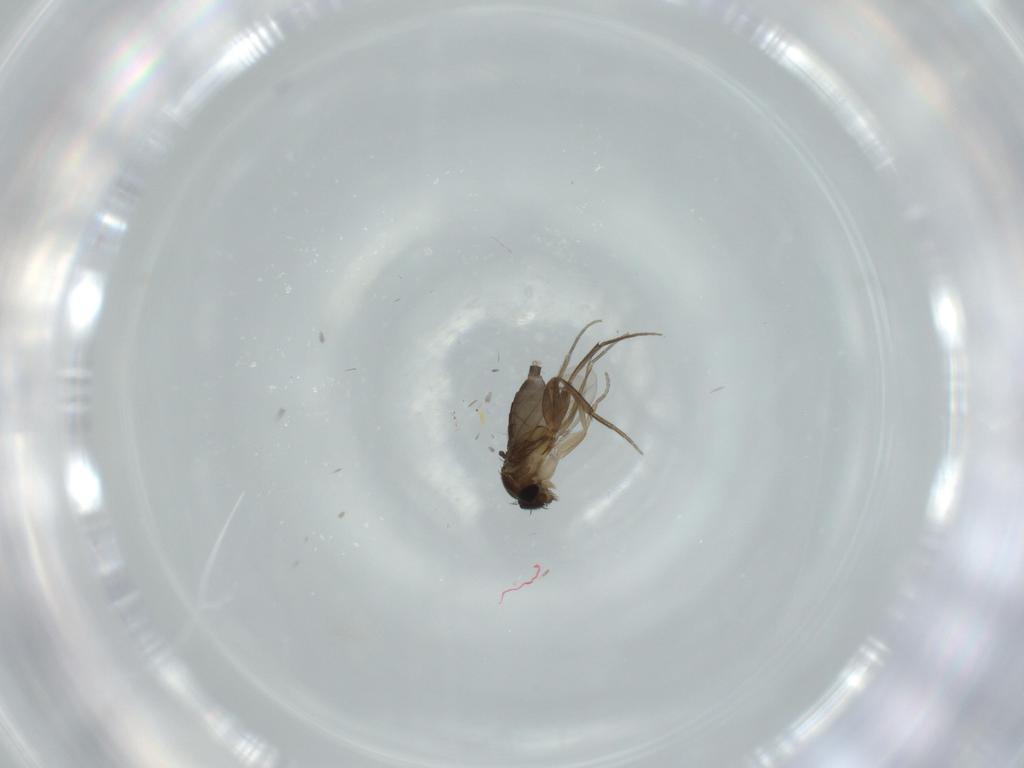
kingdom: Animalia
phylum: Arthropoda
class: Insecta
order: Diptera
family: Phoridae
